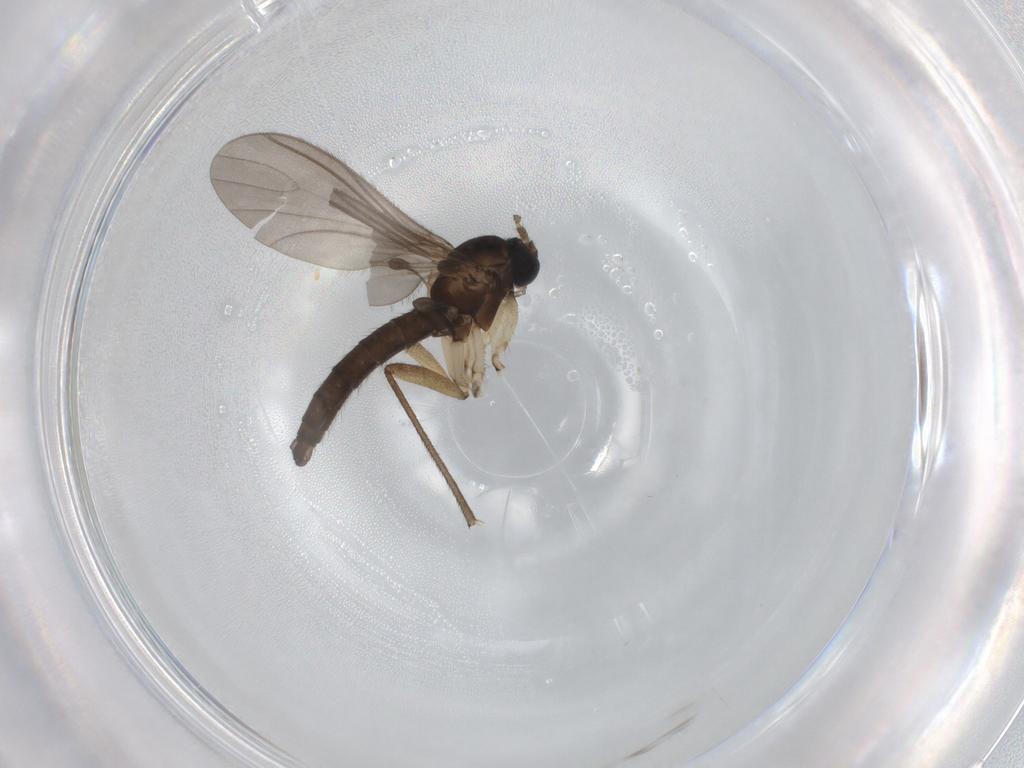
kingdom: Animalia
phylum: Arthropoda
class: Insecta
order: Diptera
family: Sciaridae
